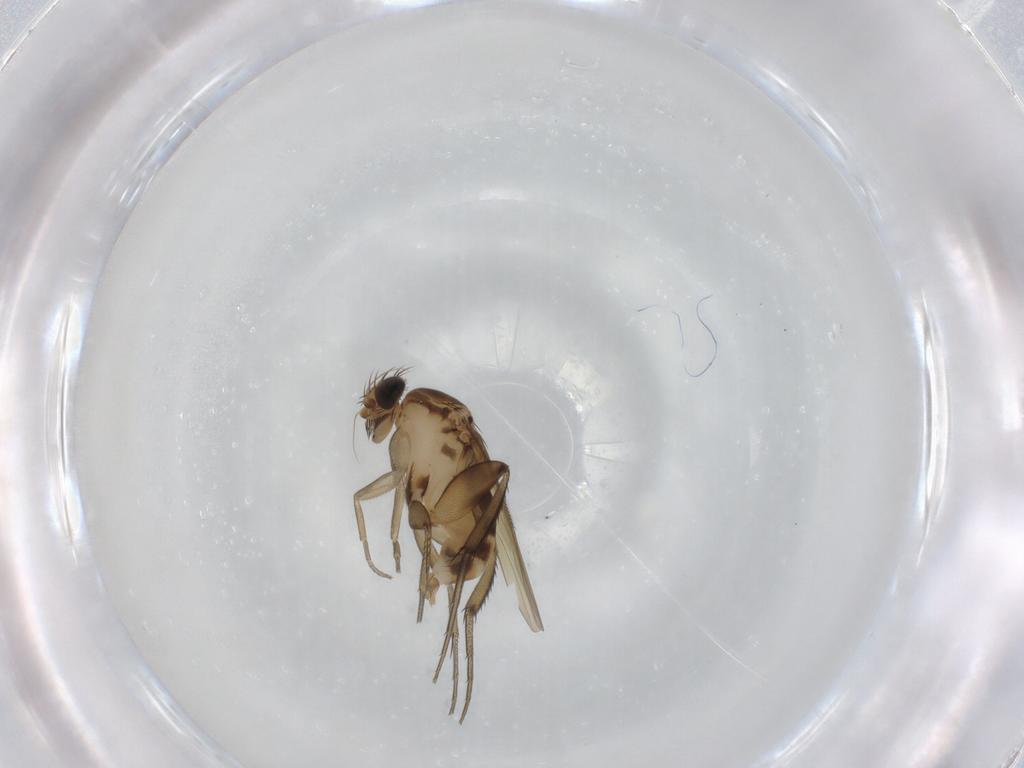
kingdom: Animalia
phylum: Arthropoda
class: Insecta
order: Diptera
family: Phoridae
